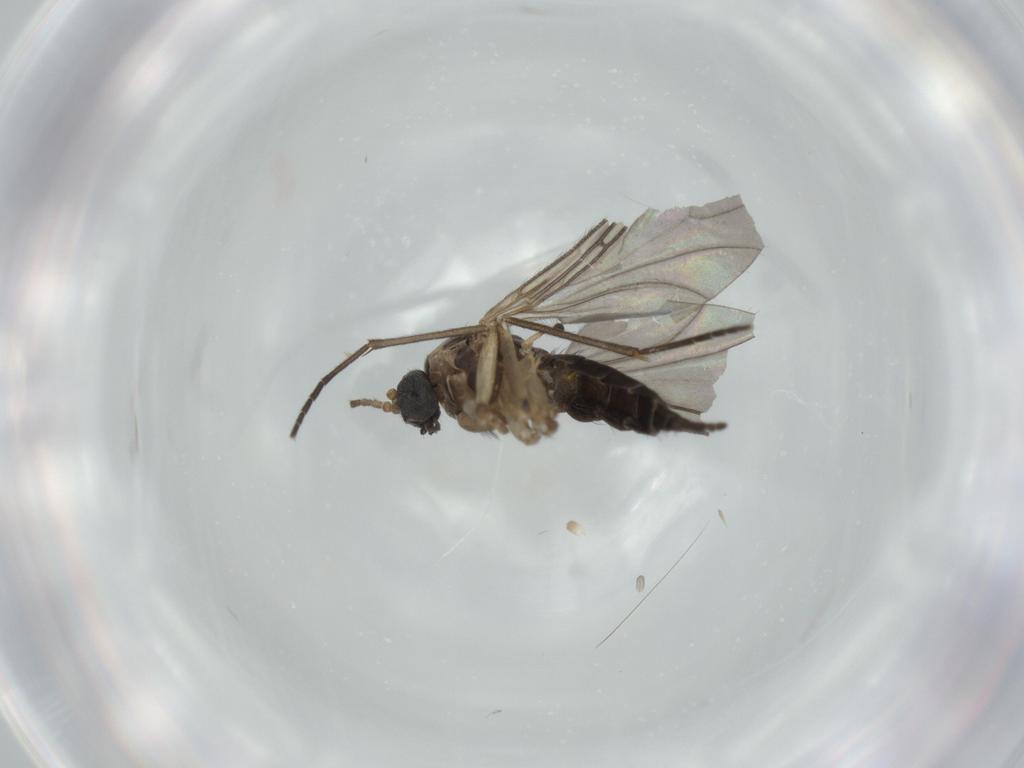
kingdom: Animalia
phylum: Arthropoda
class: Insecta
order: Diptera
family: Sciaridae
